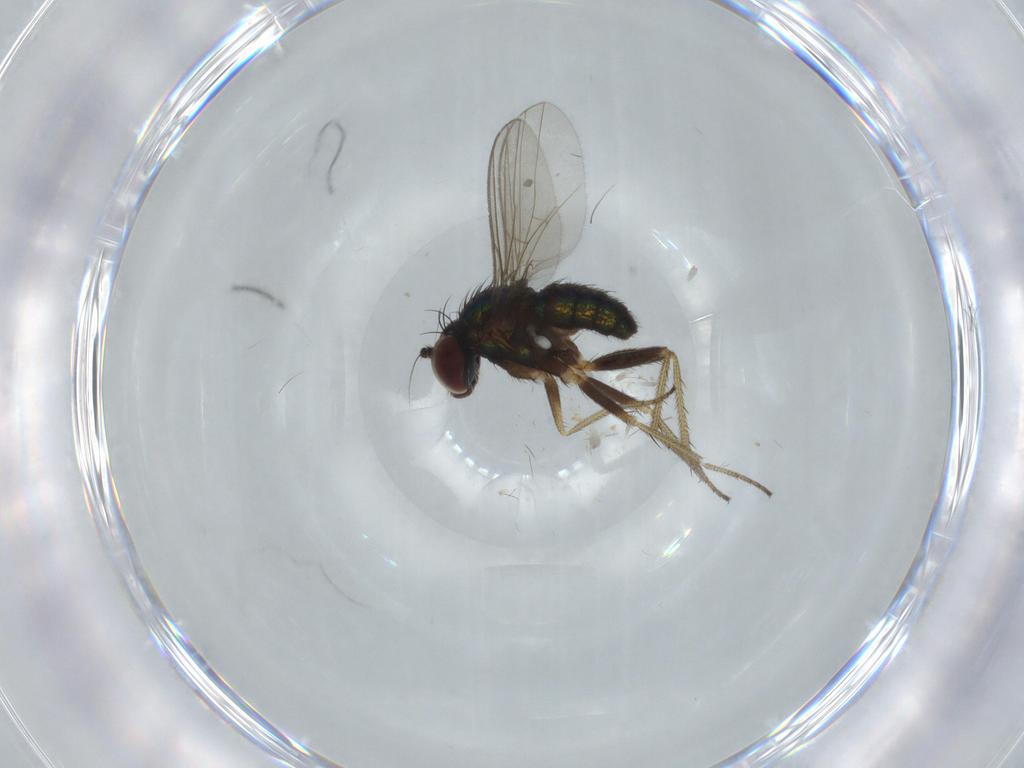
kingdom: Animalia
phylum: Arthropoda
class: Insecta
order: Diptera
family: Dolichopodidae
